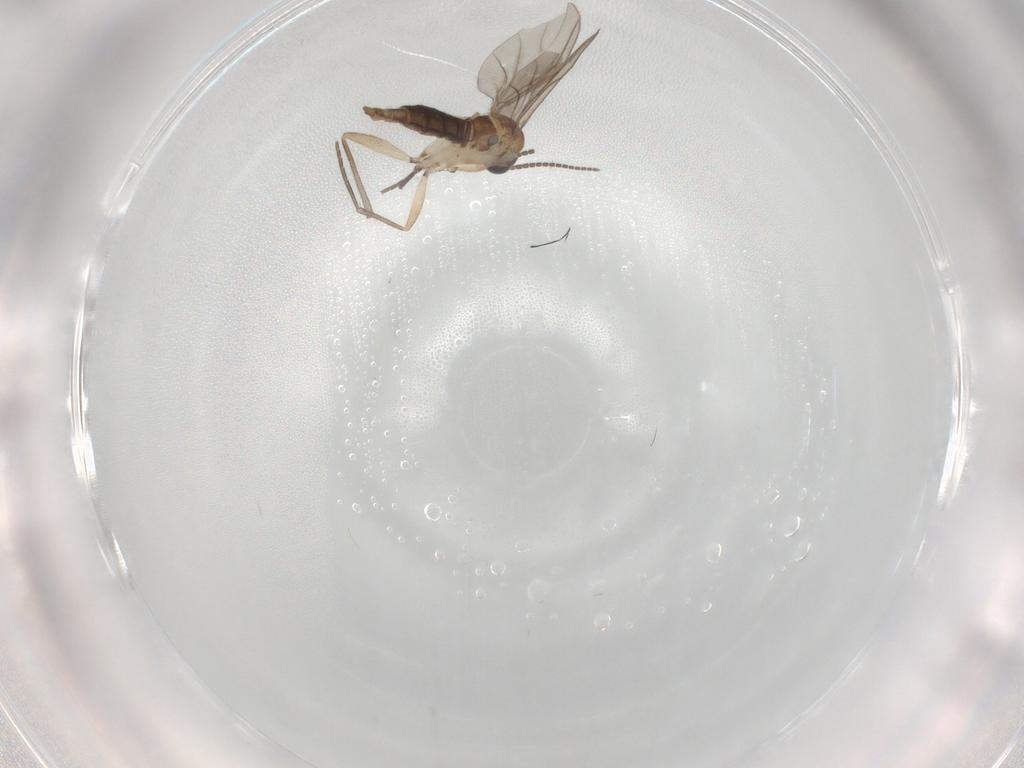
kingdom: Animalia
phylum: Arthropoda
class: Insecta
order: Diptera
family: Sciaridae
